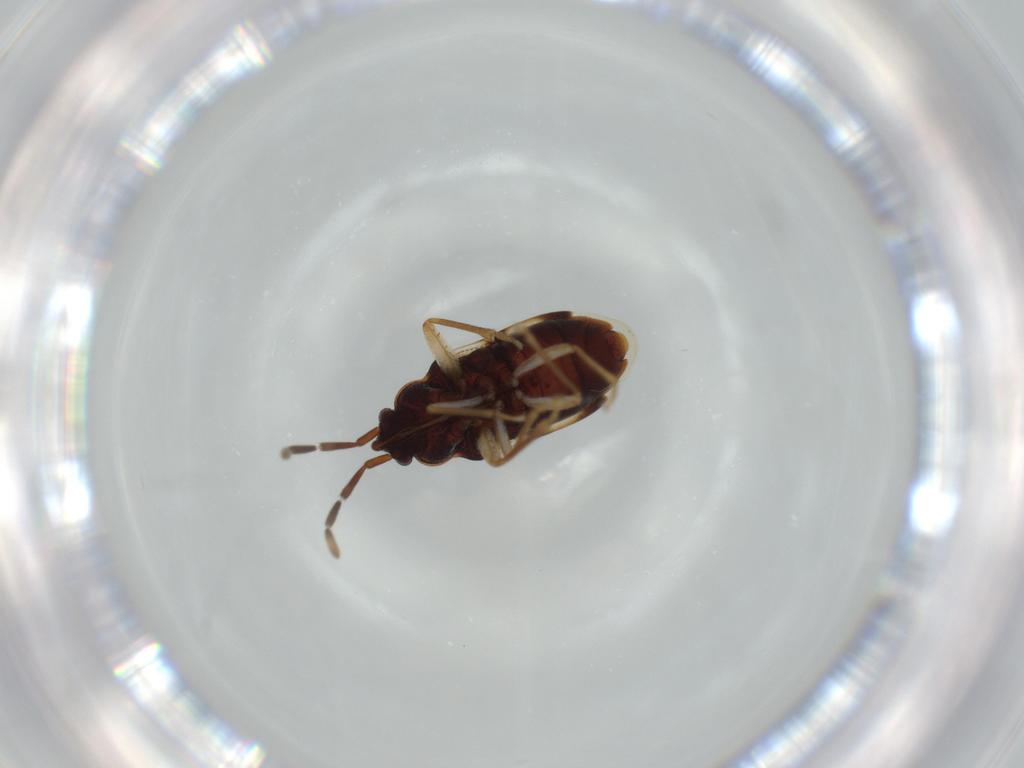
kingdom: Animalia
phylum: Arthropoda
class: Insecta
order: Hemiptera
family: Rhyparochromidae
